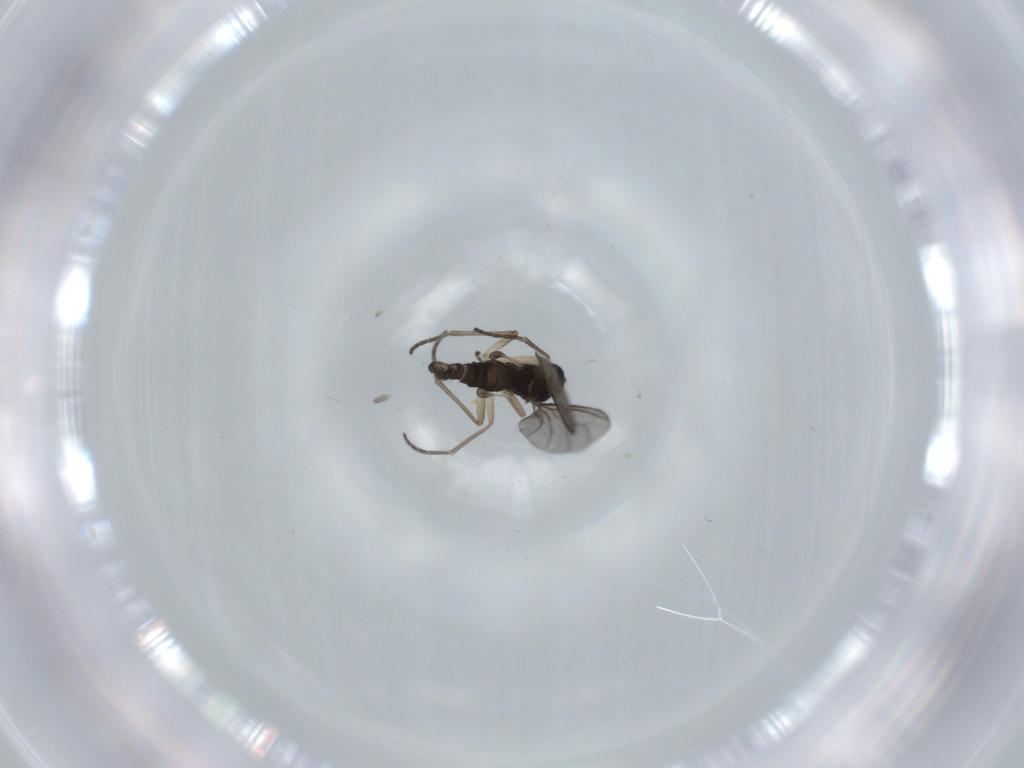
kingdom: Animalia
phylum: Arthropoda
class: Insecta
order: Diptera
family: Sciaridae
